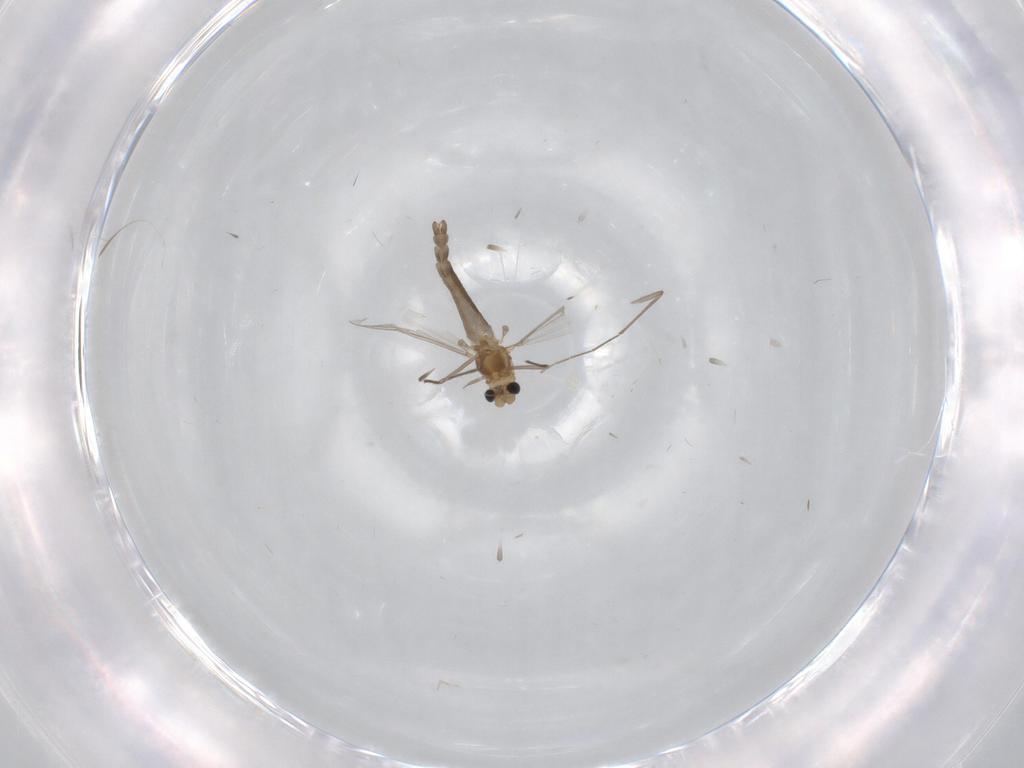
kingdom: Animalia
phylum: Arthropoda
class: Insecta
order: Diptera
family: Chironomidae
